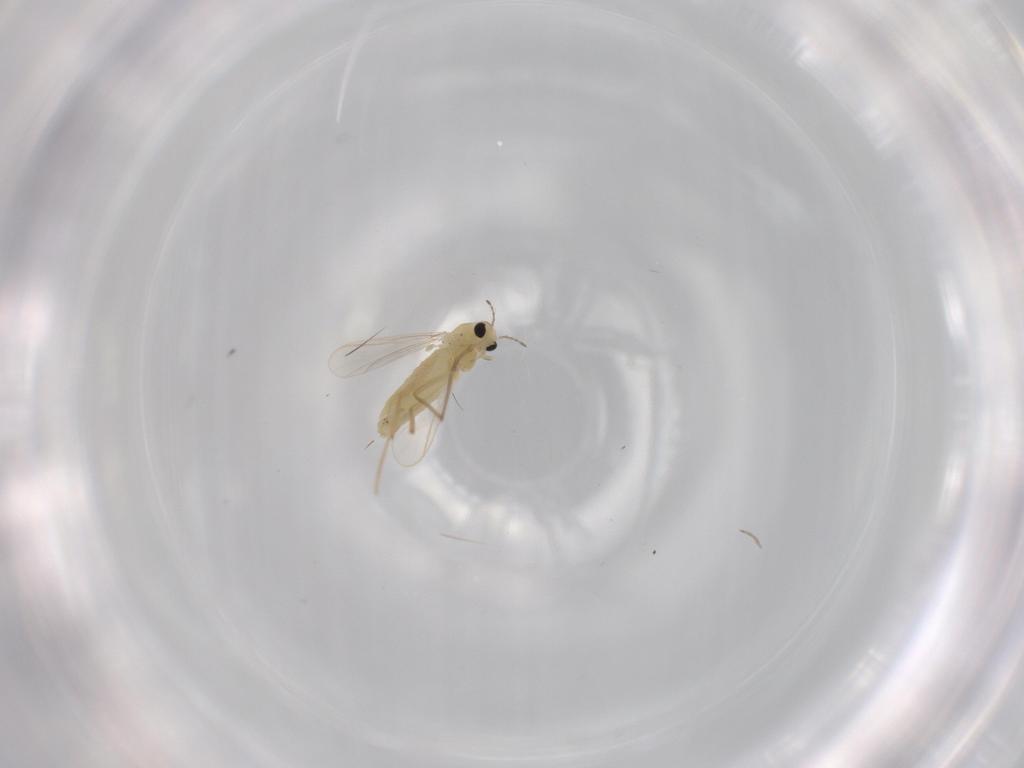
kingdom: Animalia
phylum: Arthropoda
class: Insecta
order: Diptera
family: Chironomidae
